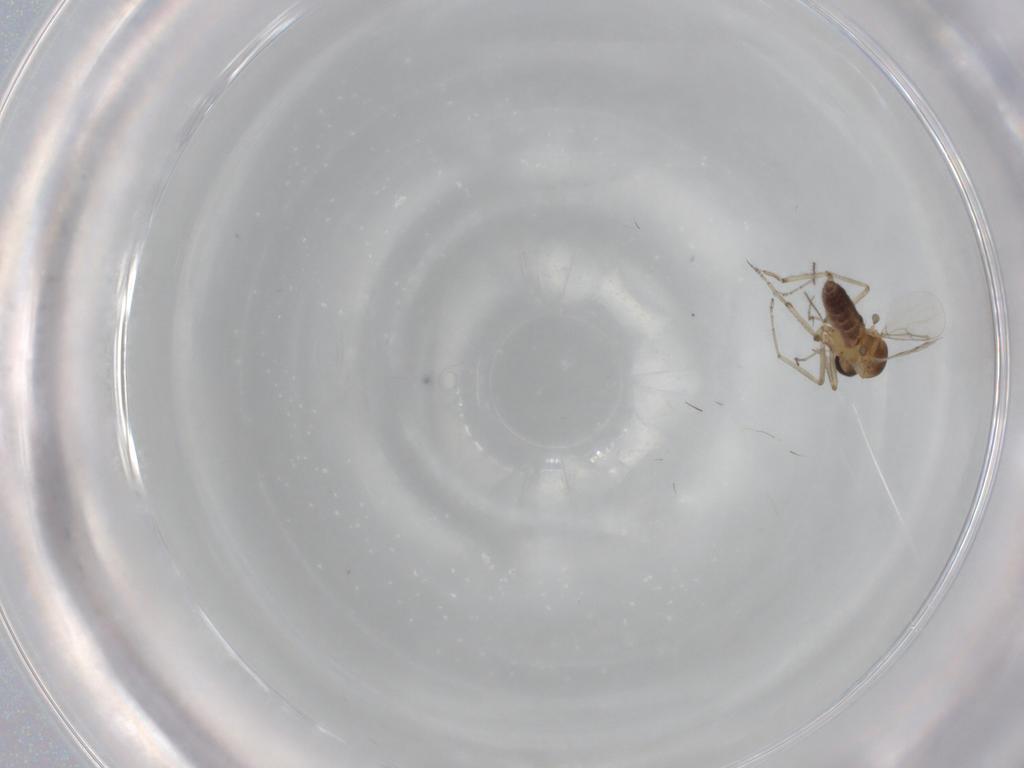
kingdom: Animalia
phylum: Arthropoda
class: Insecta
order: Diptera
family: Ceratopogonidae
